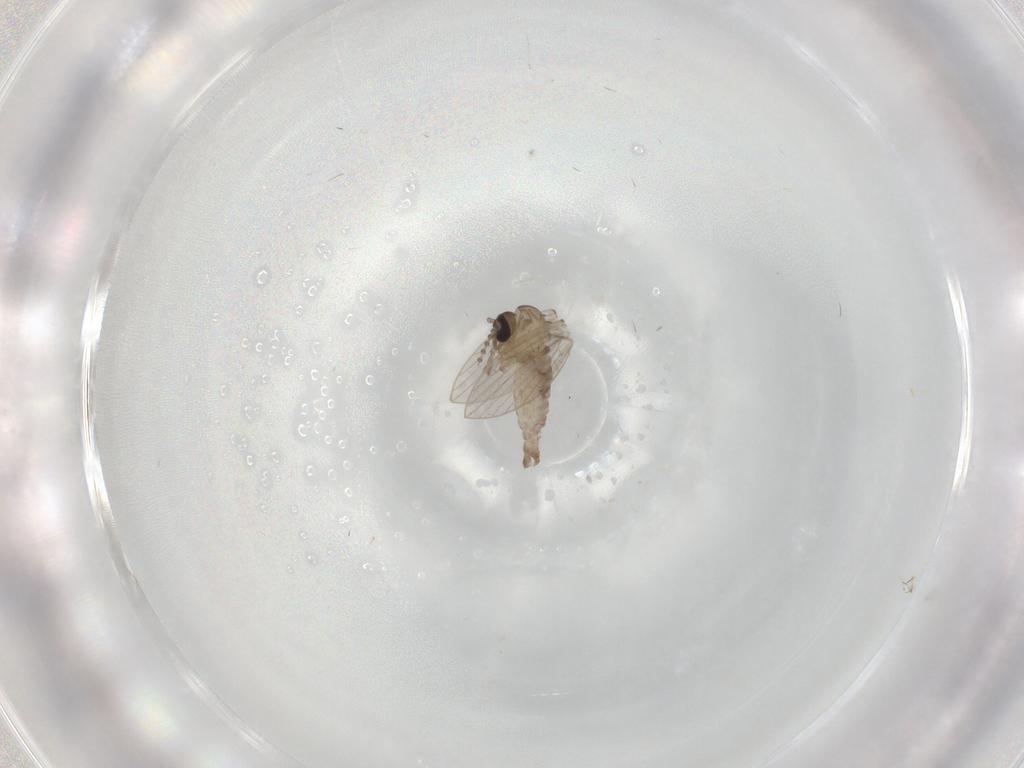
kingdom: Animalia
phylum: Arthropoda
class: Insecta
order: Diptera
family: Psychodidae
